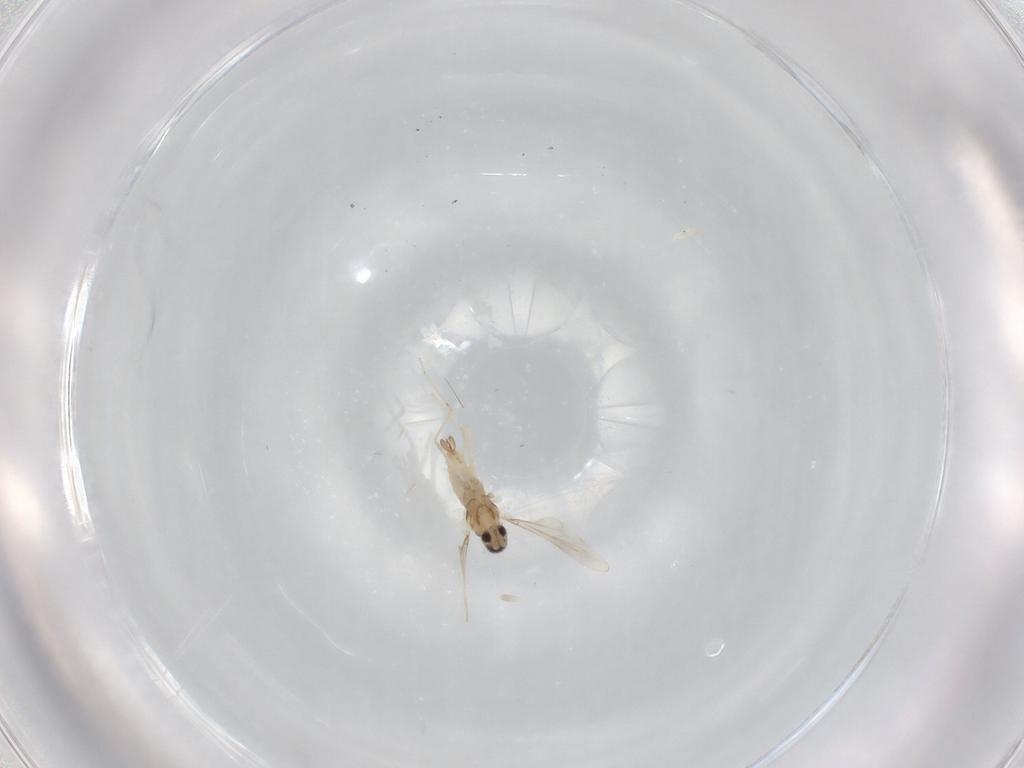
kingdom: Animalia
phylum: Arthropoda
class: Insecta
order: Diptera
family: Cecidomyiidae
